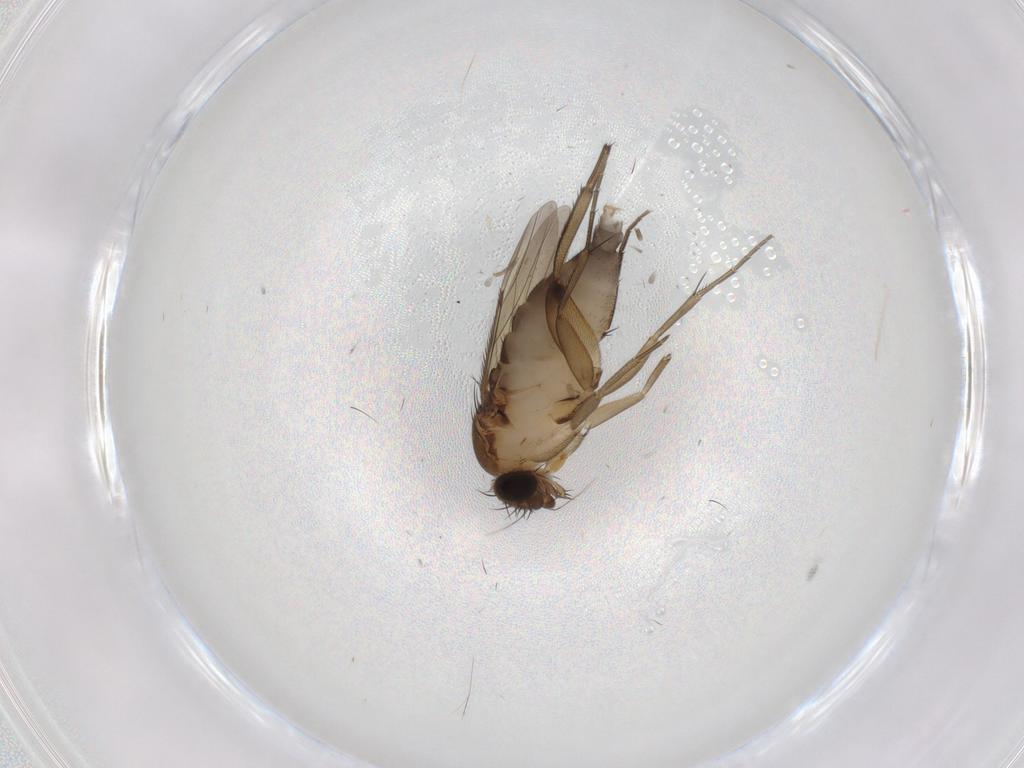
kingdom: Animalia
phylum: Arthropoda
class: Insecta
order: Diptera
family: Phoridae
